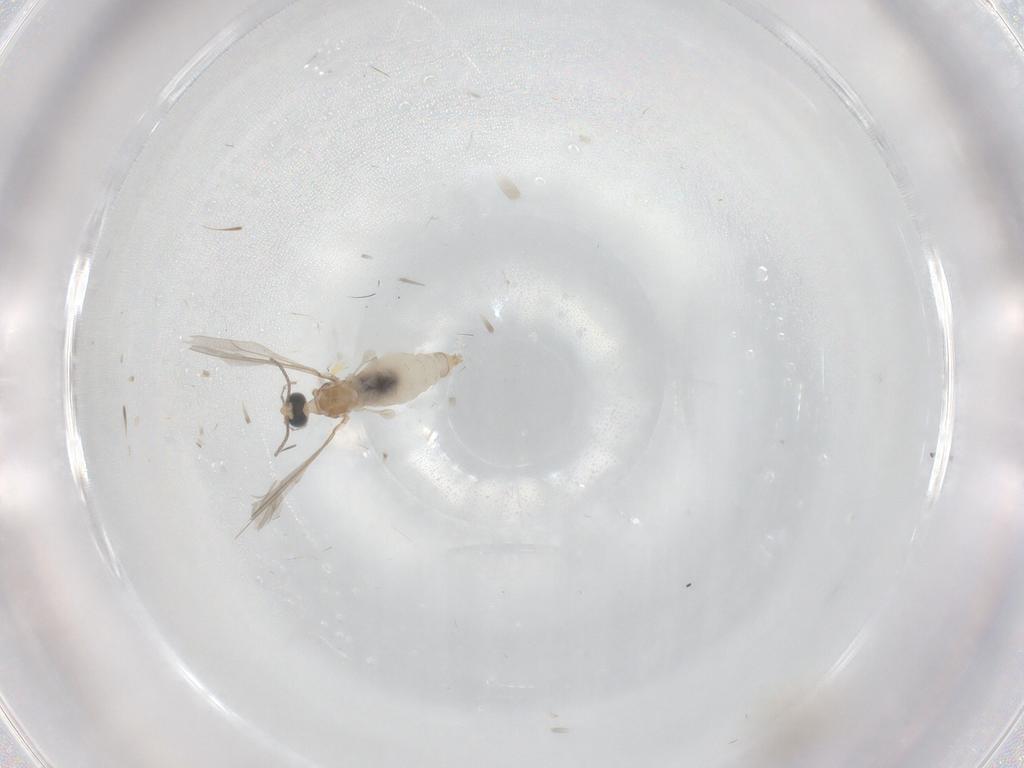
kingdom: Animalia
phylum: Arthropoda
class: Insecta
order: Diptera
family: Cecidomyiidae
